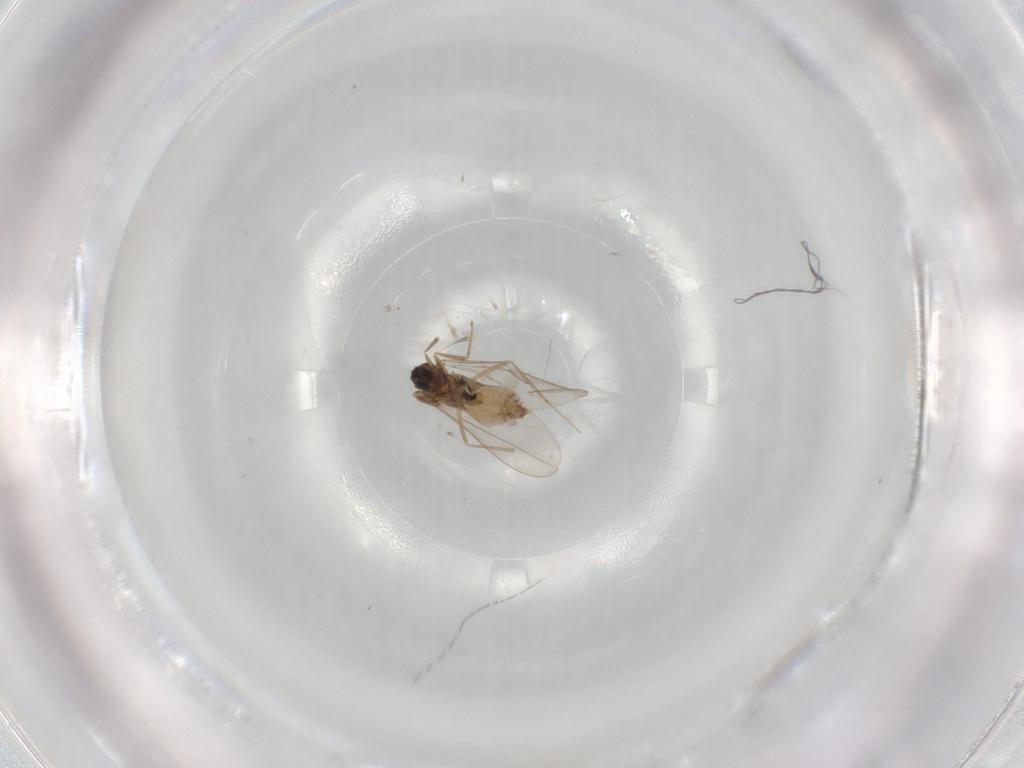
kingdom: Animalia
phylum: Arthropoda
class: Insecta
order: Diptera
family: Cecidomyiidae
